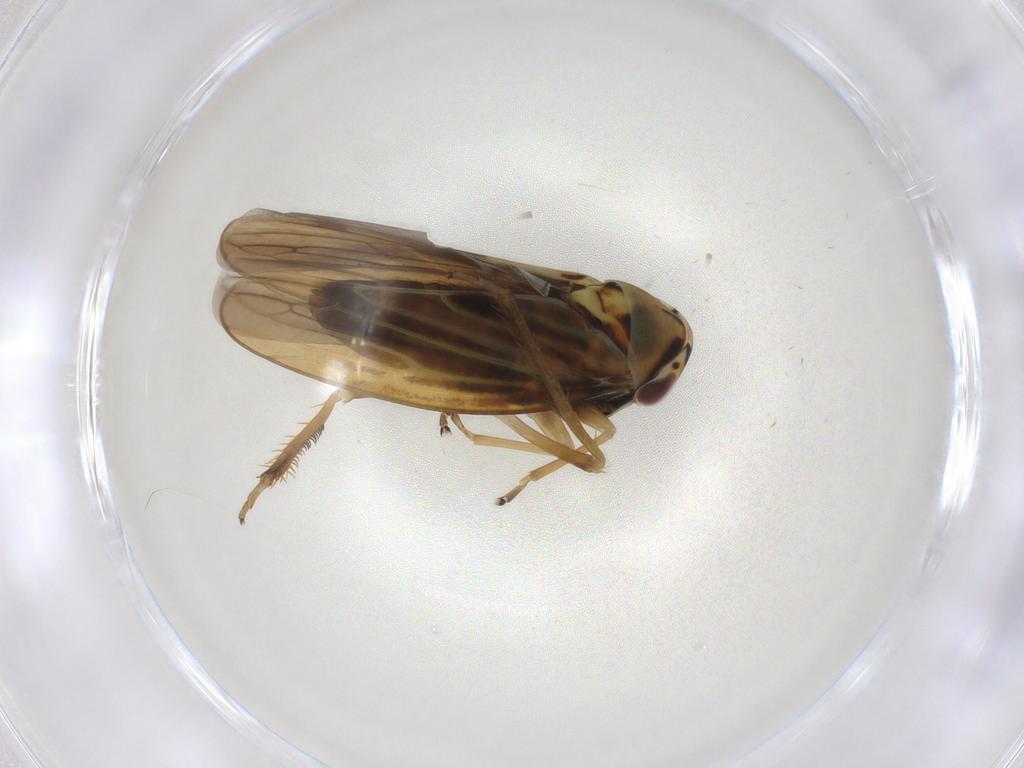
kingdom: Animalia
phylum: Arthropoda
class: Insecta
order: Hemiptera
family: Cicadellidae
